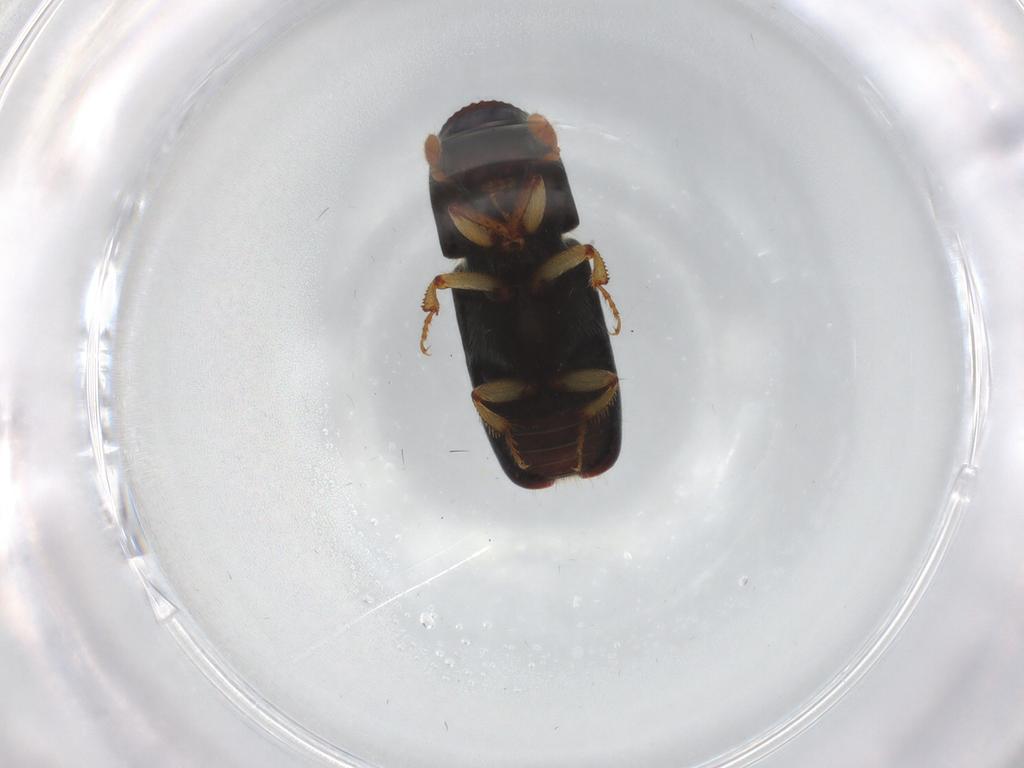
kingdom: Animalia
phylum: Arthropoda
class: Insecta
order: Coleoptera
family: Curculionidae
